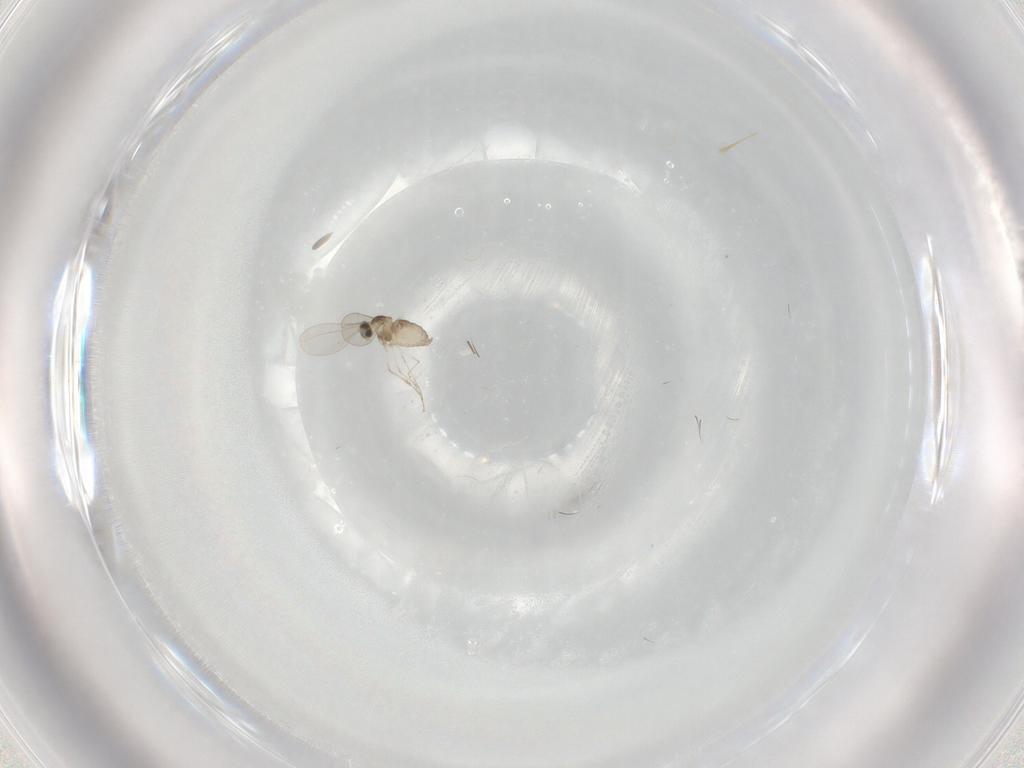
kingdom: Animalia
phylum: Arthropoda
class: Insecta
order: Diptera
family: Cecidomyiidae
